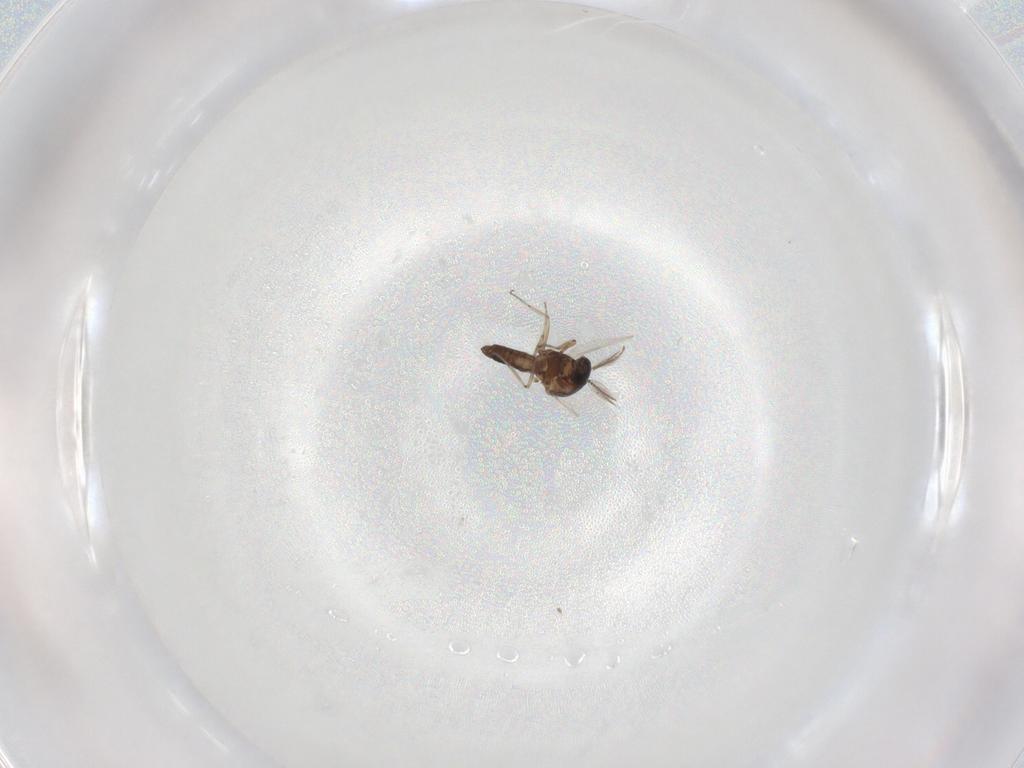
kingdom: Animalia
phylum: Arthropoda
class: Insecta
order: Diptera
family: Ceratopogonidae
